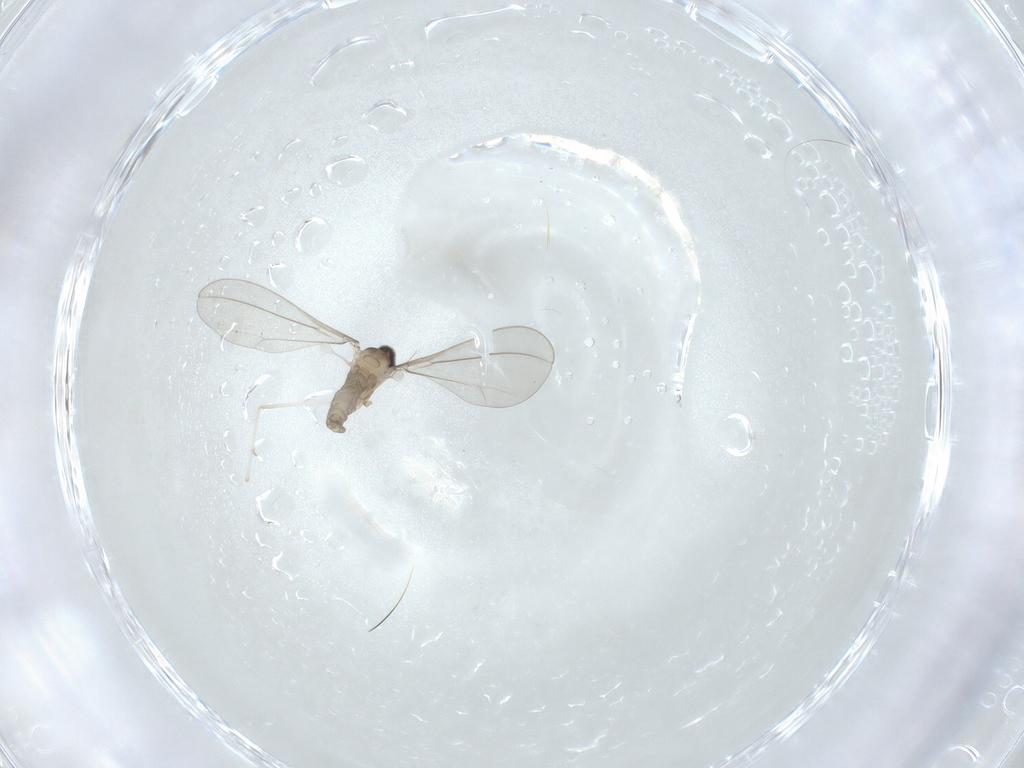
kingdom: Animalia
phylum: Arthropoda
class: Insecta
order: Diptera
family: Cecidomyiidae
